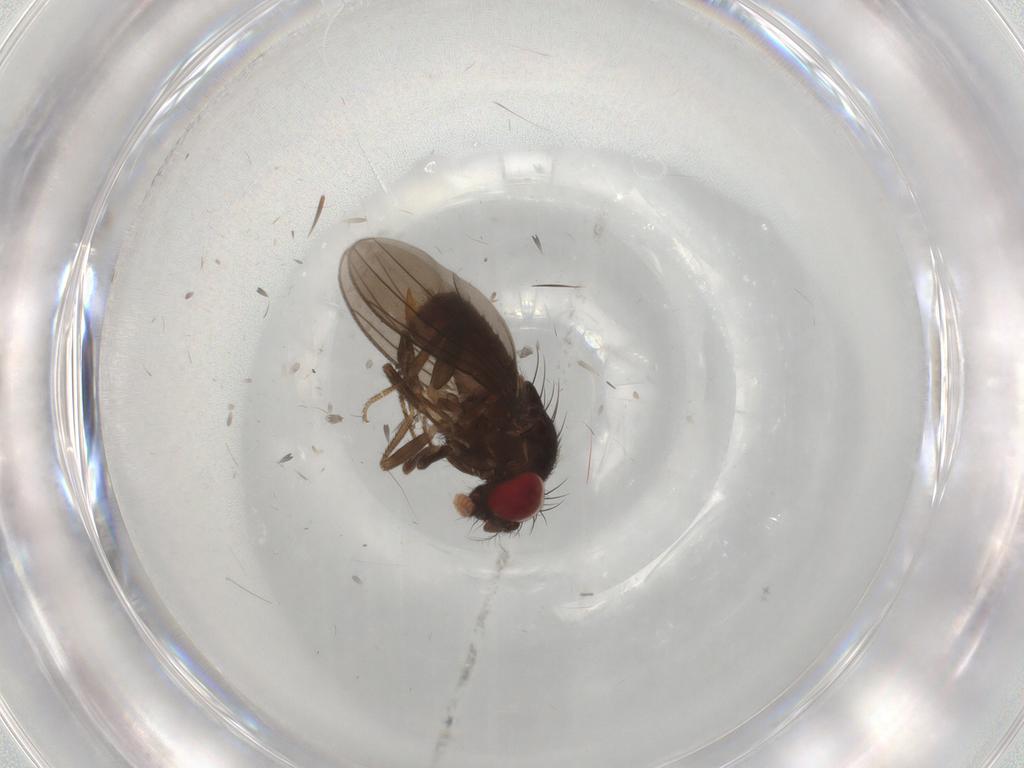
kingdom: Animalia
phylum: Arthropoda
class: Insecta
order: Diptera
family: Drosophilidae
